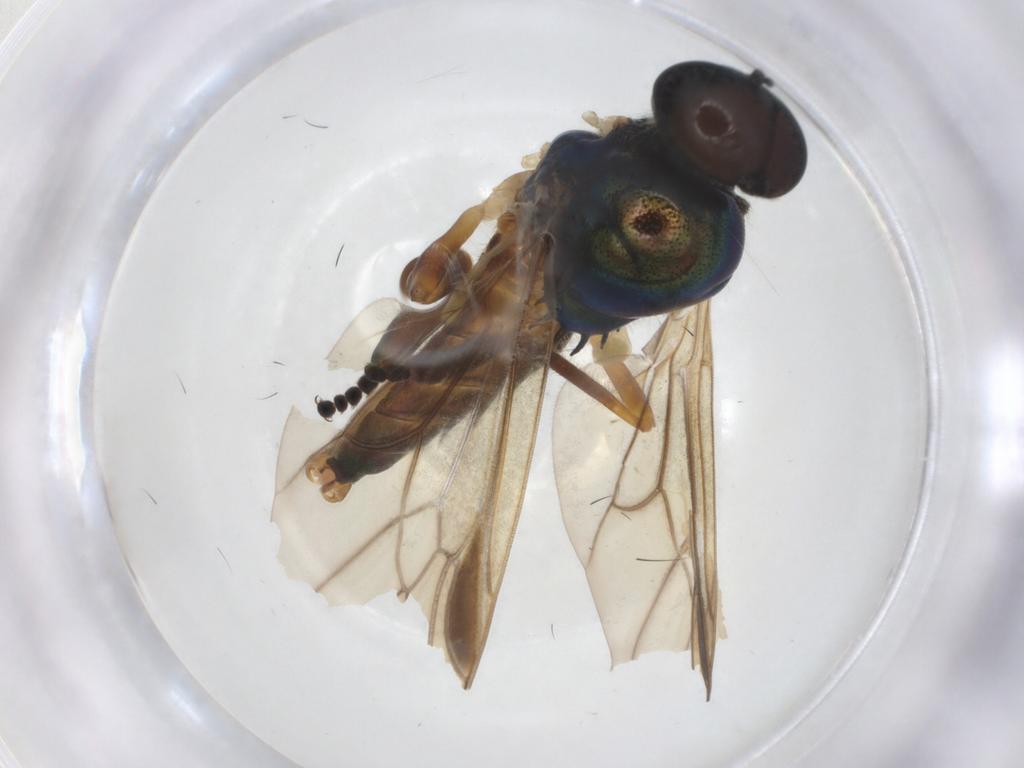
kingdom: Animalia
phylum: Arthropoda
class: Insecta
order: Diptera
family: Stratiomyidae
